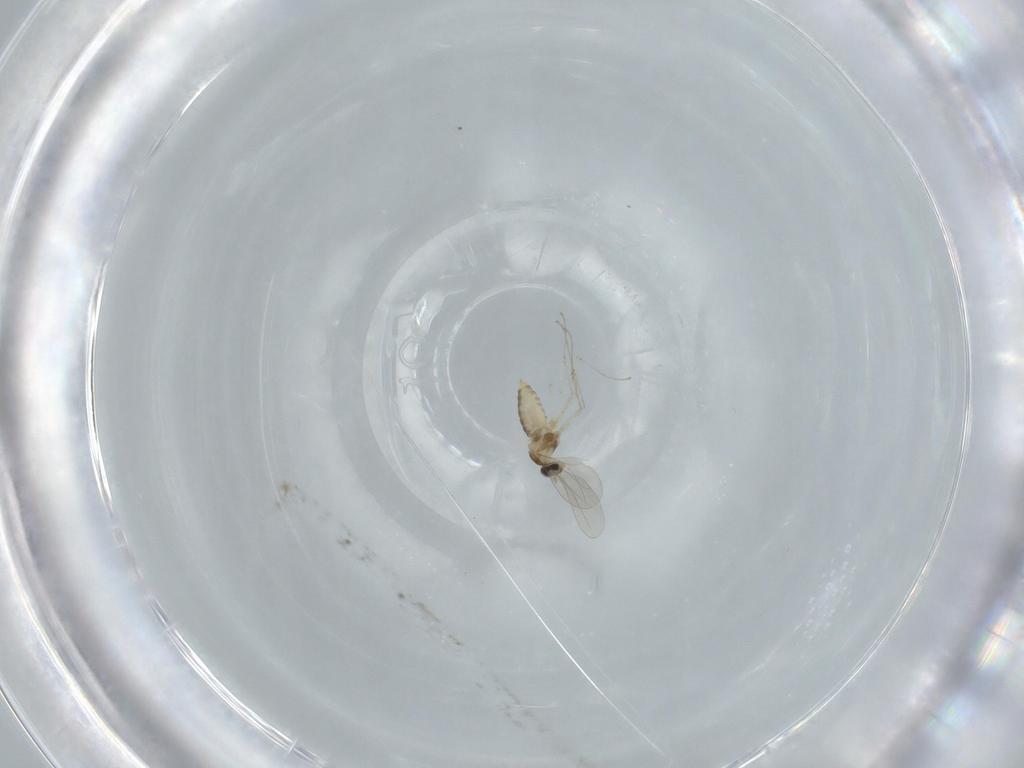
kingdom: Animalia
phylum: Arthropoda
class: Insecta
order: Diptera
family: Cecidomyiidae
